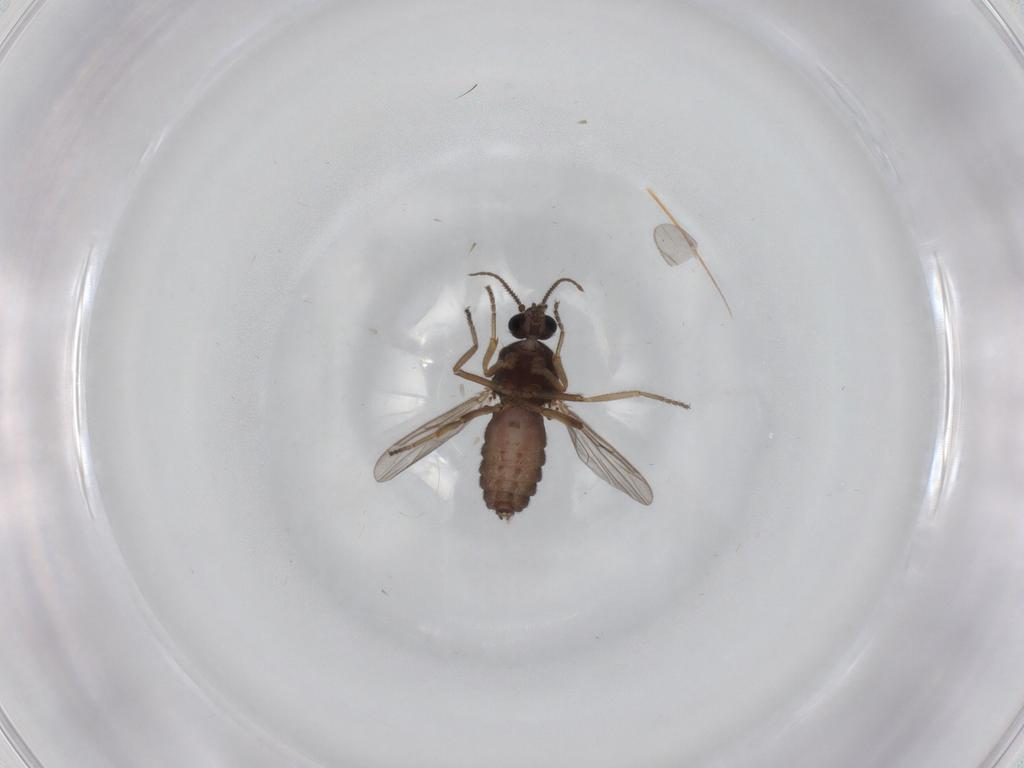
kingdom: Animalia
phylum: Arthropoda
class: Insecta
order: Diptera
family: Ceratopogonidae
